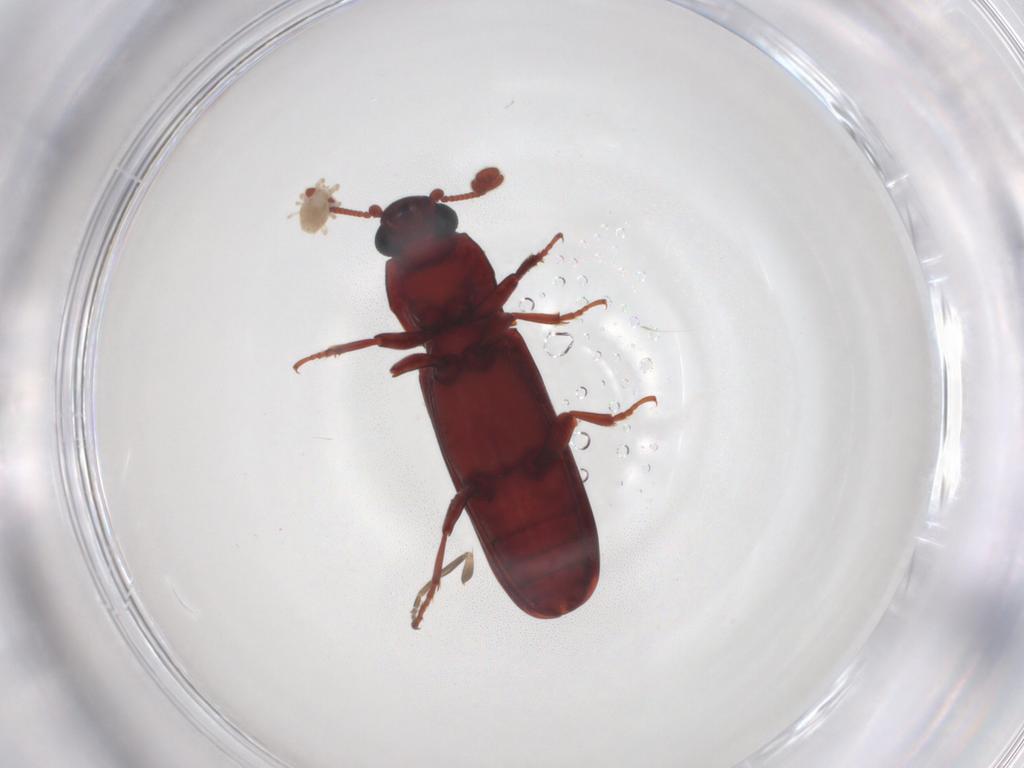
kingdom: Animalia
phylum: Arthropoda
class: Insecta
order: Diptera
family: Phoridae
